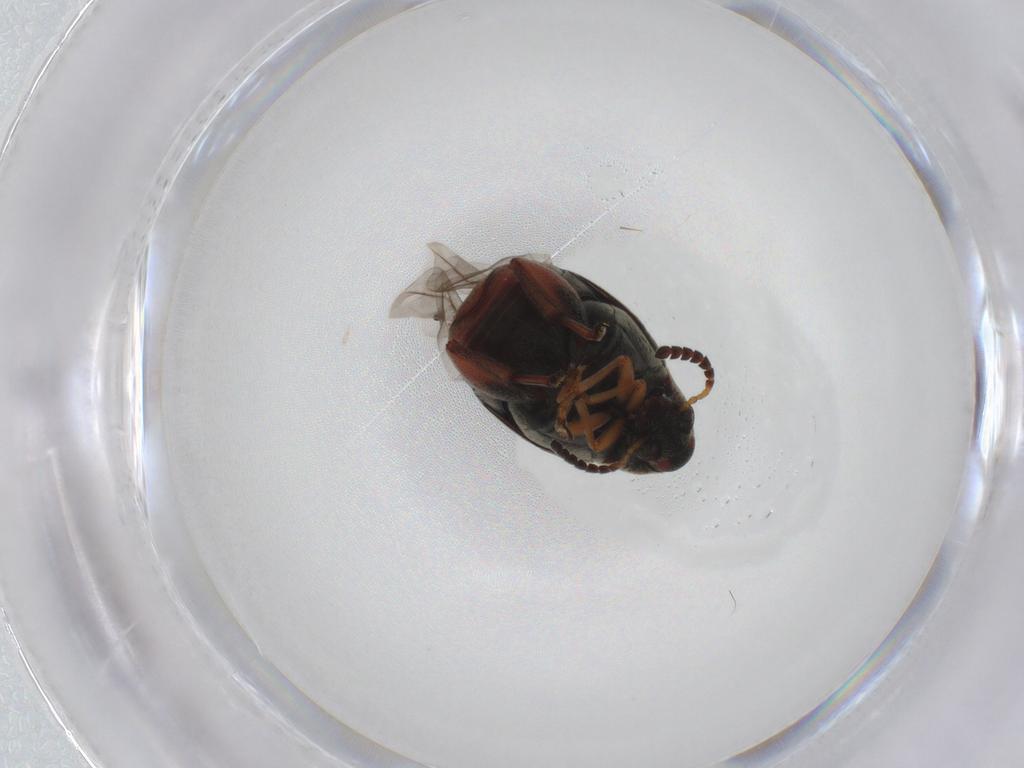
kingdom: Animalia
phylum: Arthropoda
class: Insecta
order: Coleoptera
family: Chrysomelidae
